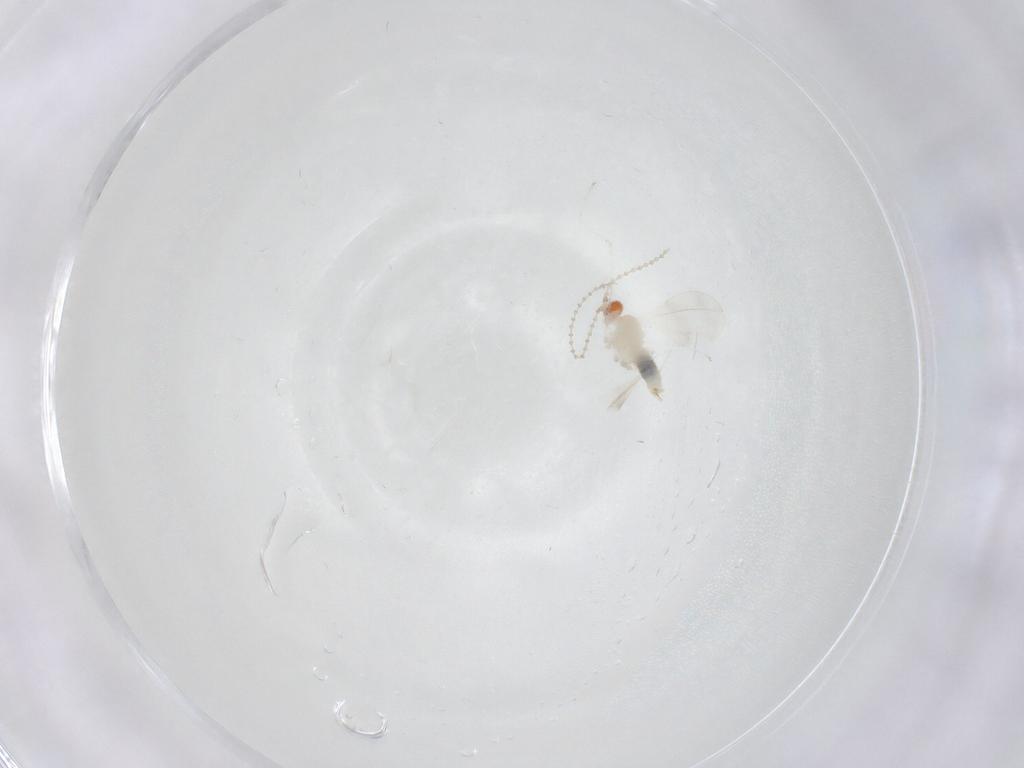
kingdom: Animalia
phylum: Arthropoda
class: Insecta
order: Diptera
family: Cecidomyiidae
